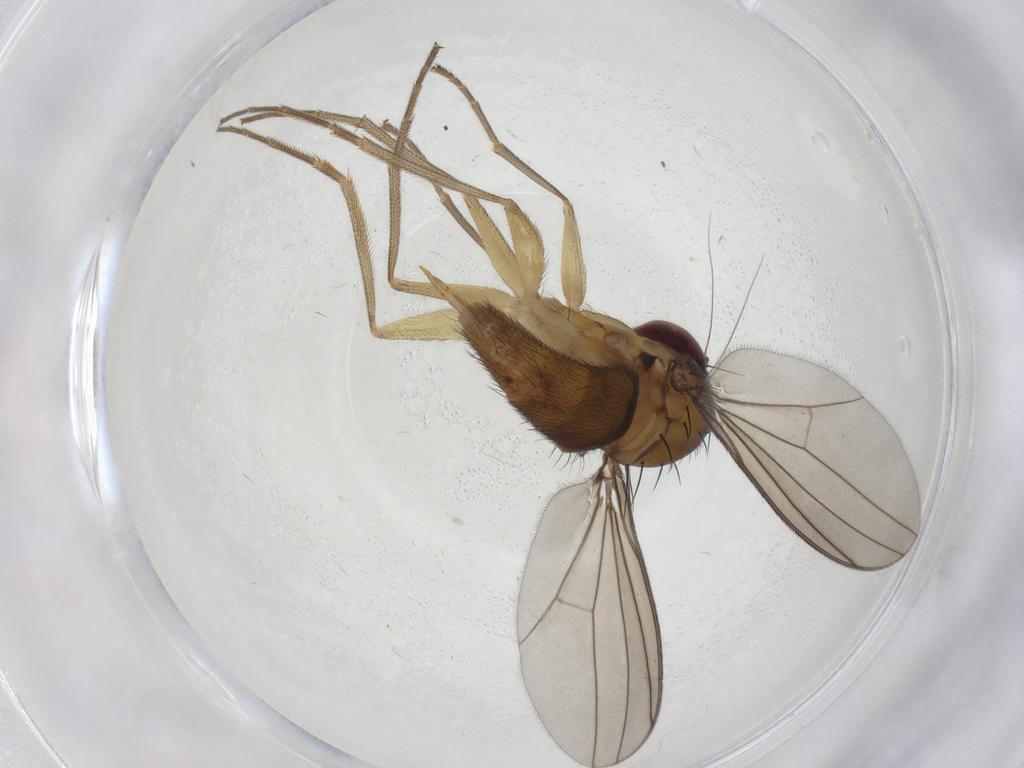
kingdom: Animalia
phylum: Arthropoda
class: Insecta
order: Diptera
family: Dolichopodidae
